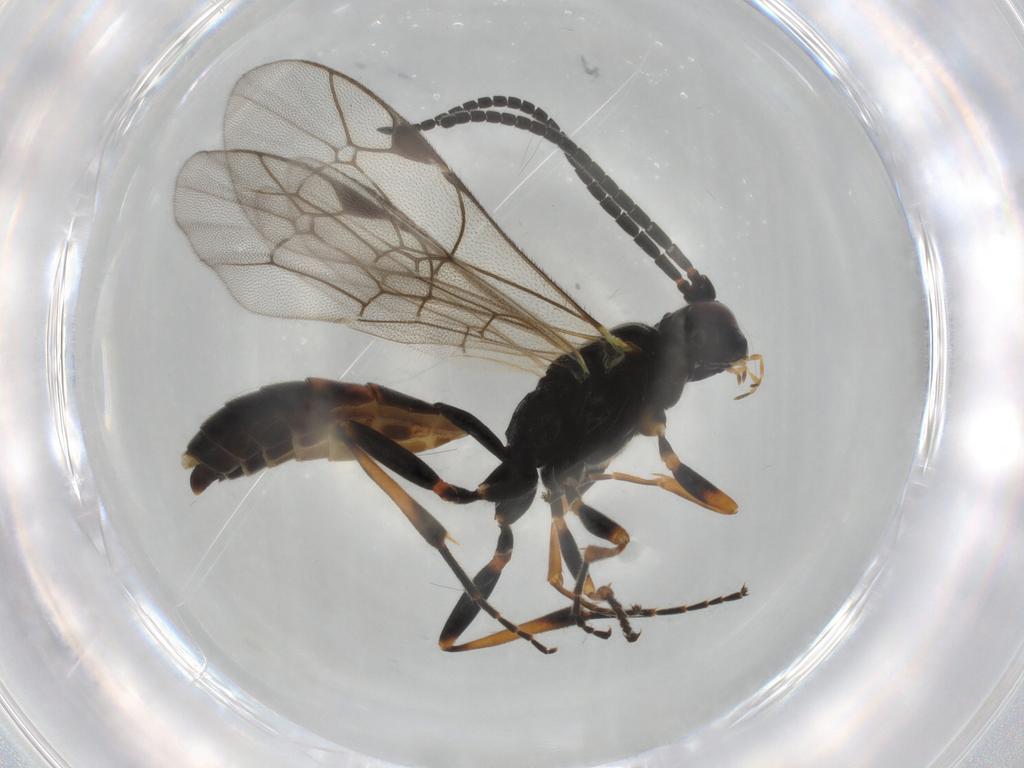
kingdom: Animalia
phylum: Arthropoda
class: Insecta
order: Hymenoptera
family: Ichneumonidae
